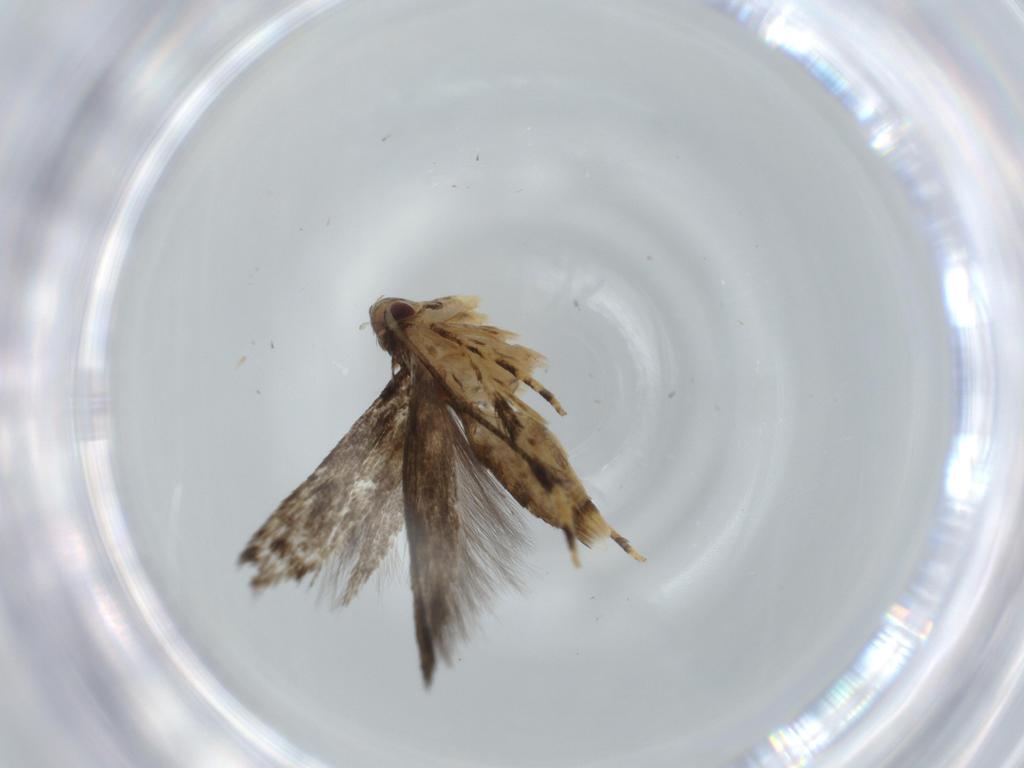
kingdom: Animalia
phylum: Arthropoda
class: Insecta
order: Lepidoptera
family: Momphidae
